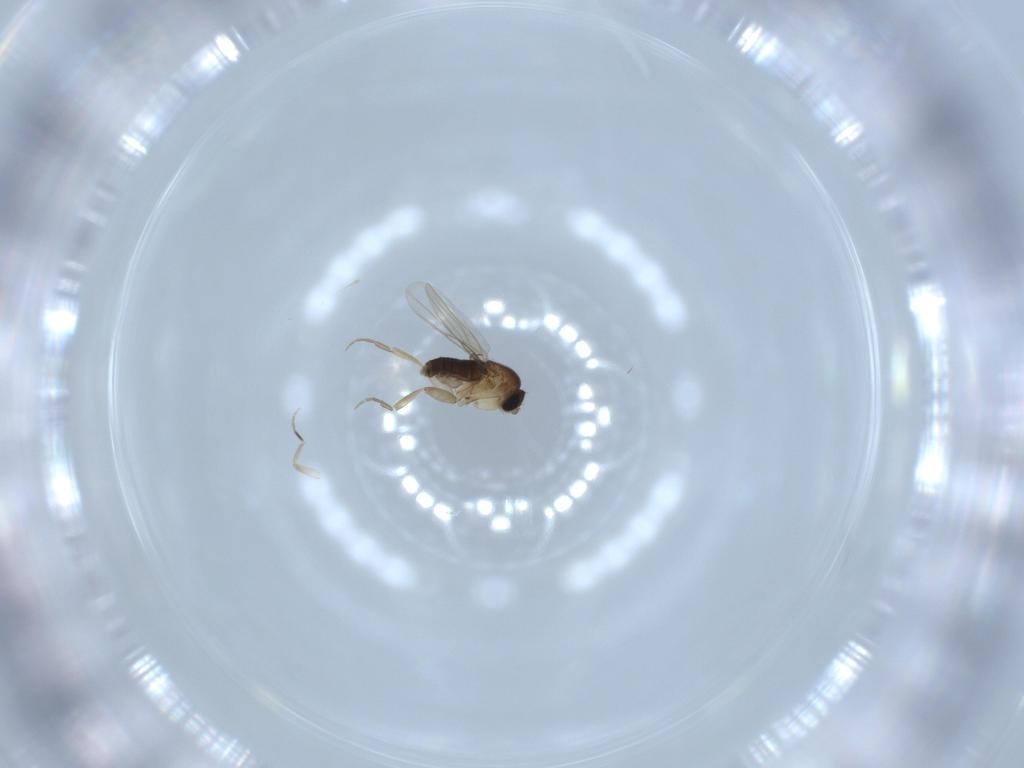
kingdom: Animalia
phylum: Arthropoda
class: Insecta
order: Diptera
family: Phoridae
